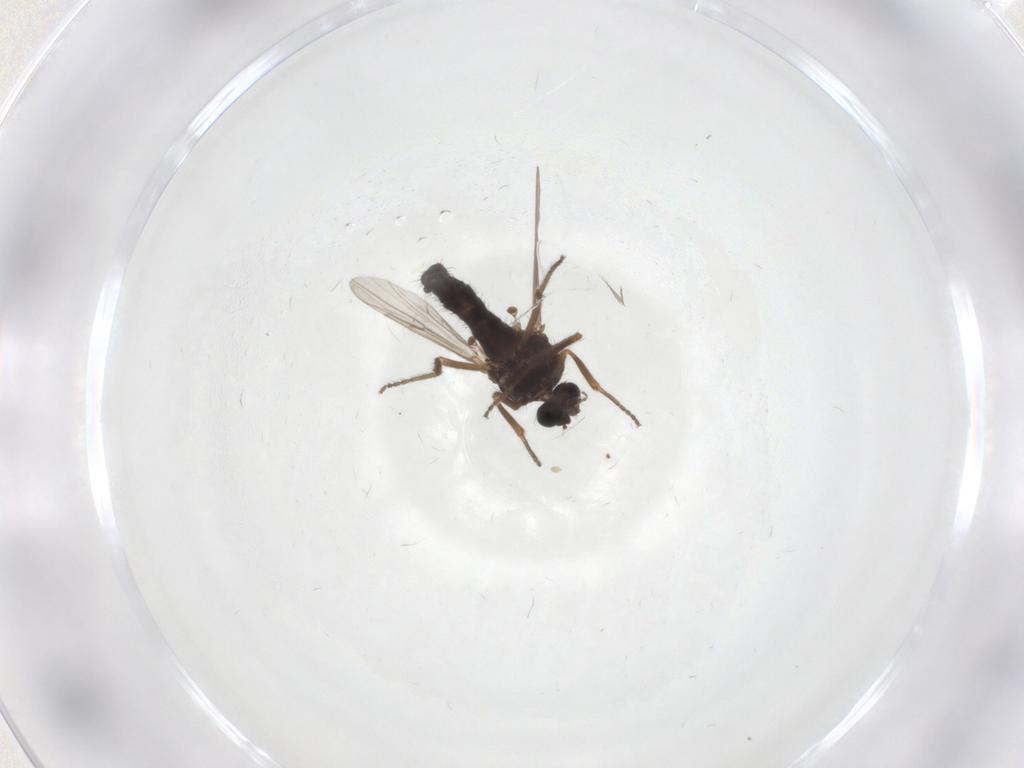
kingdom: Animalia
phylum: Arthropoda
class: Insecta
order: Diptera
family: Ceratopogonidae
